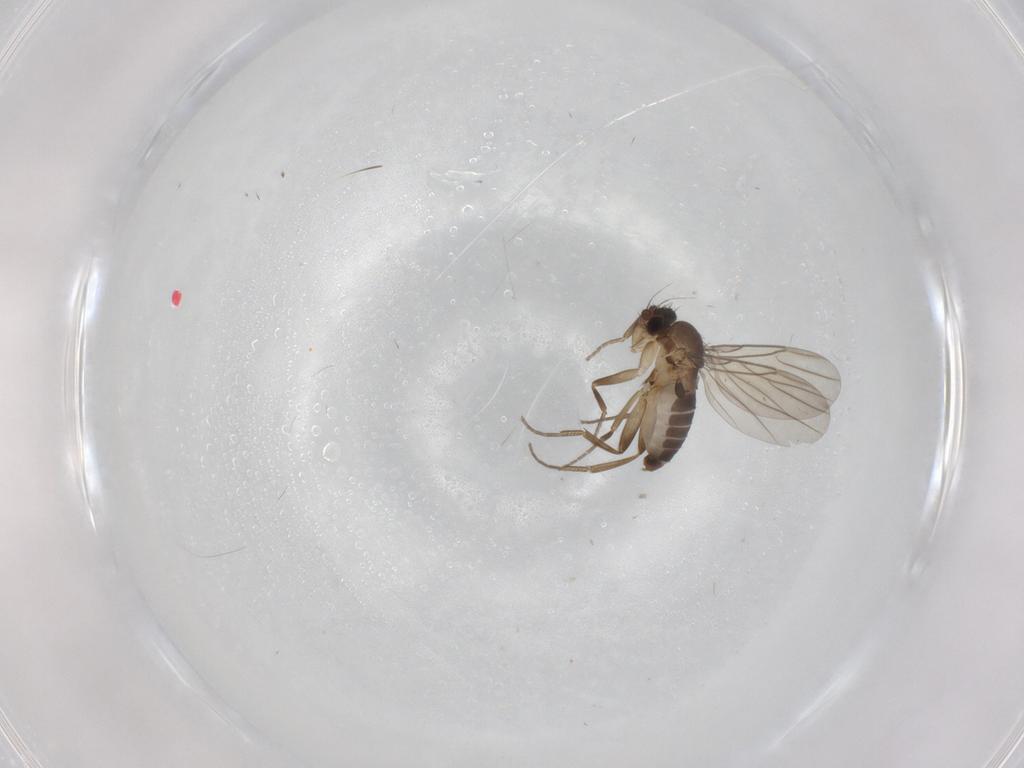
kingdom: Animalia
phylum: Arthropoda
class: Insecta
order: Diptera
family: Phoridae
